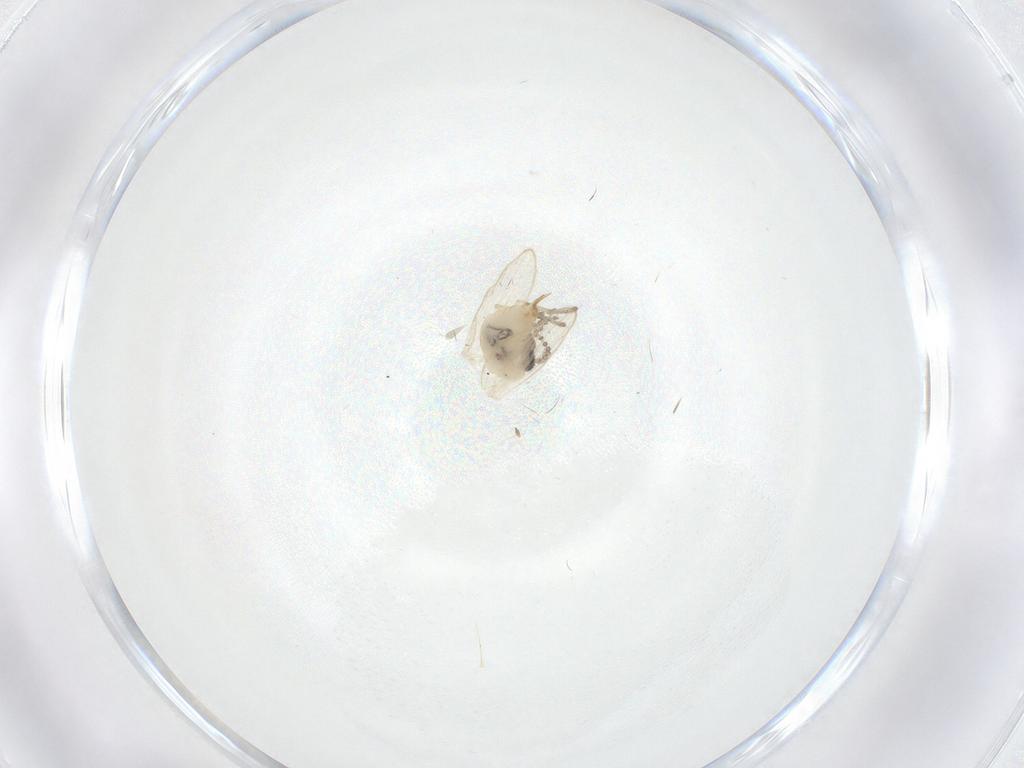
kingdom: Animalia
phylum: Arthropoda
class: Insecta
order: Diptera
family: Psychodidae
